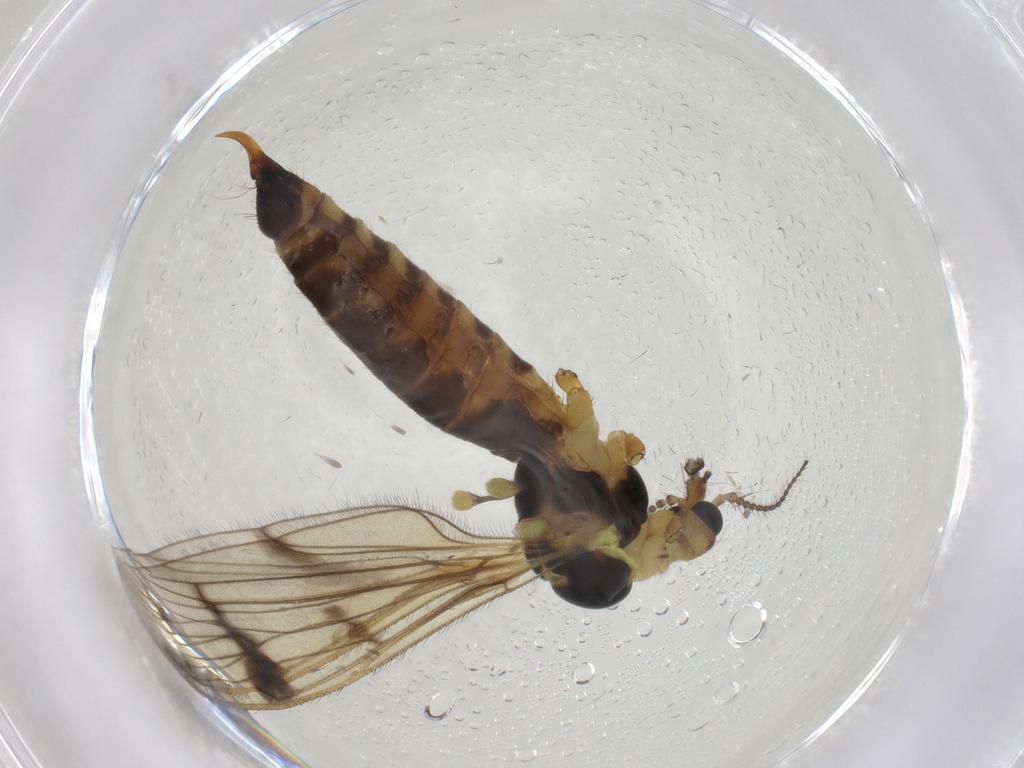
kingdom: Animalia
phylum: Arthropoda
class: Insecta
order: Diptera
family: Limoniidae
